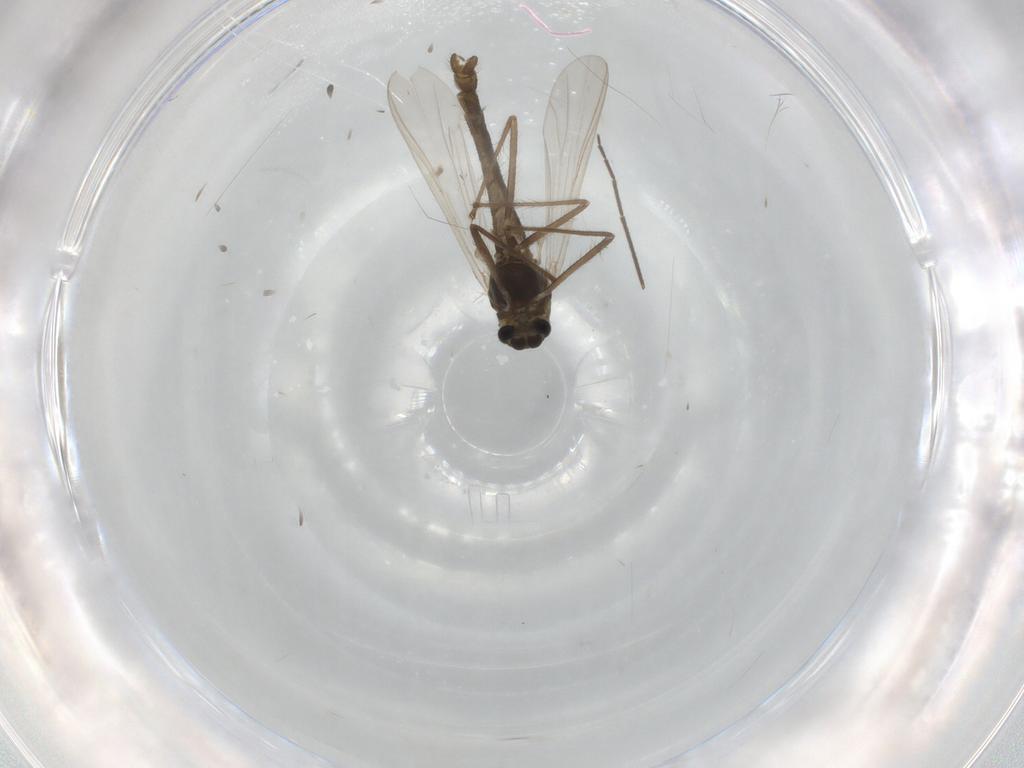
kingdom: Animalia
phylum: Arthropoda
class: Insecta
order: Diptera
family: Chironomidae
